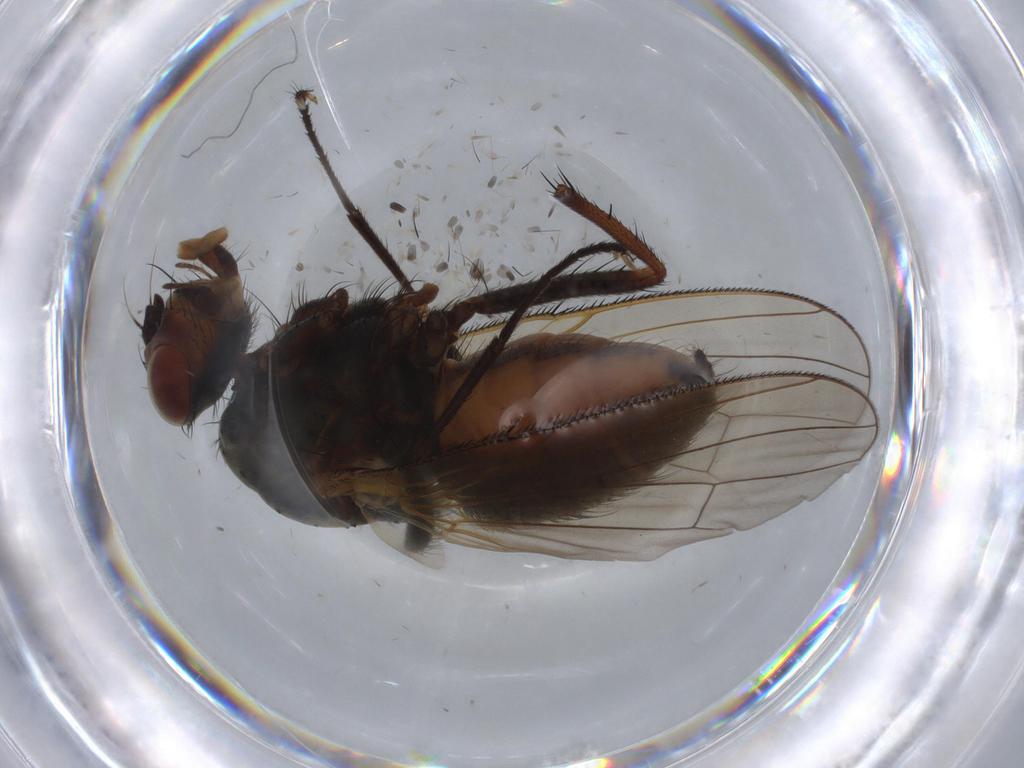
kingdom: Animalia
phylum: Arthropoda
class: Insecta
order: Diptera
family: Anthomyiidae
